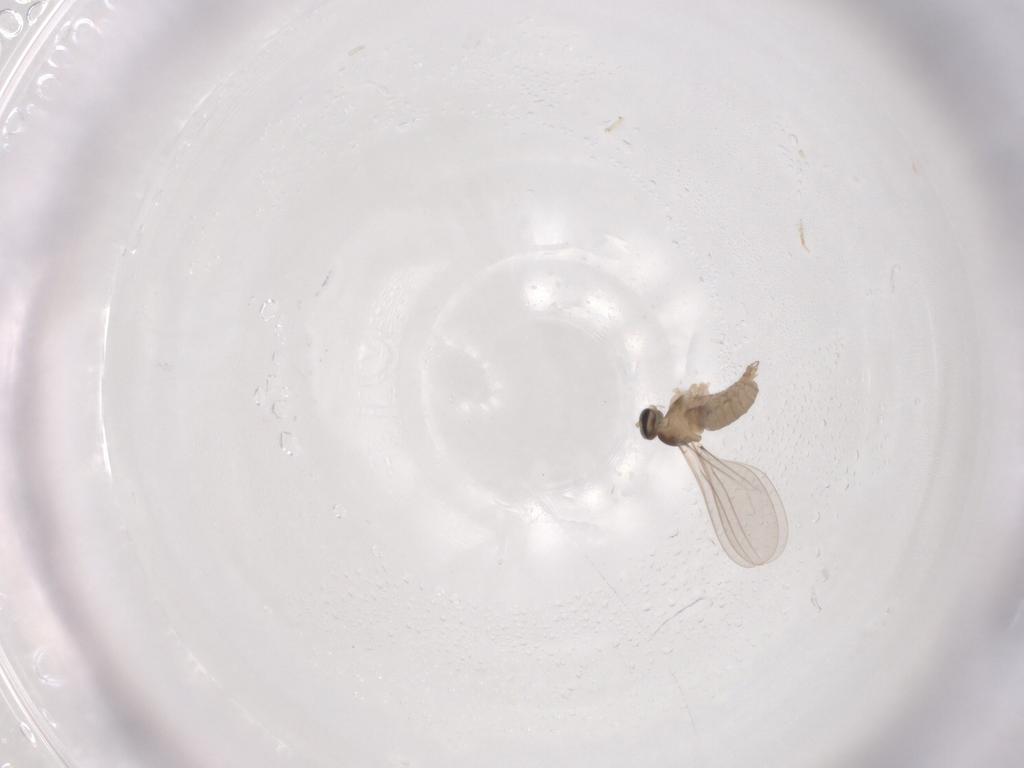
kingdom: Animalia
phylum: Arthropoda
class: Insecta
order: Diptera
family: Cecidomyiidae
